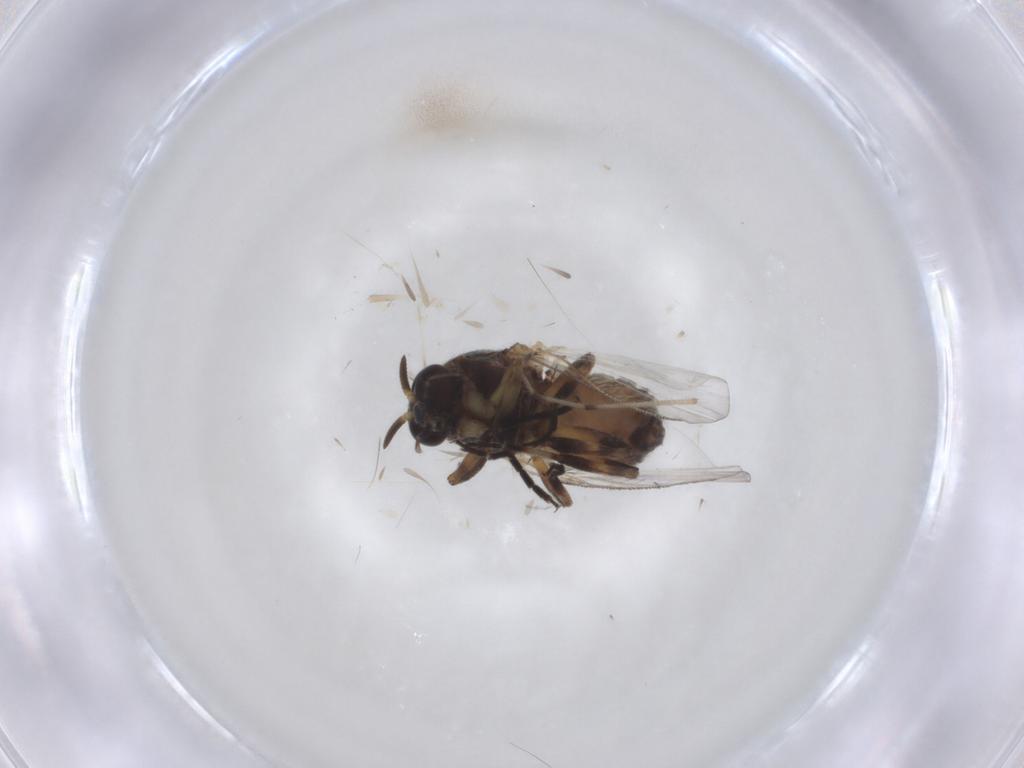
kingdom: Animalia
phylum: Arthropoda
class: Insecta
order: Diptera
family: Ceratopogonidae
